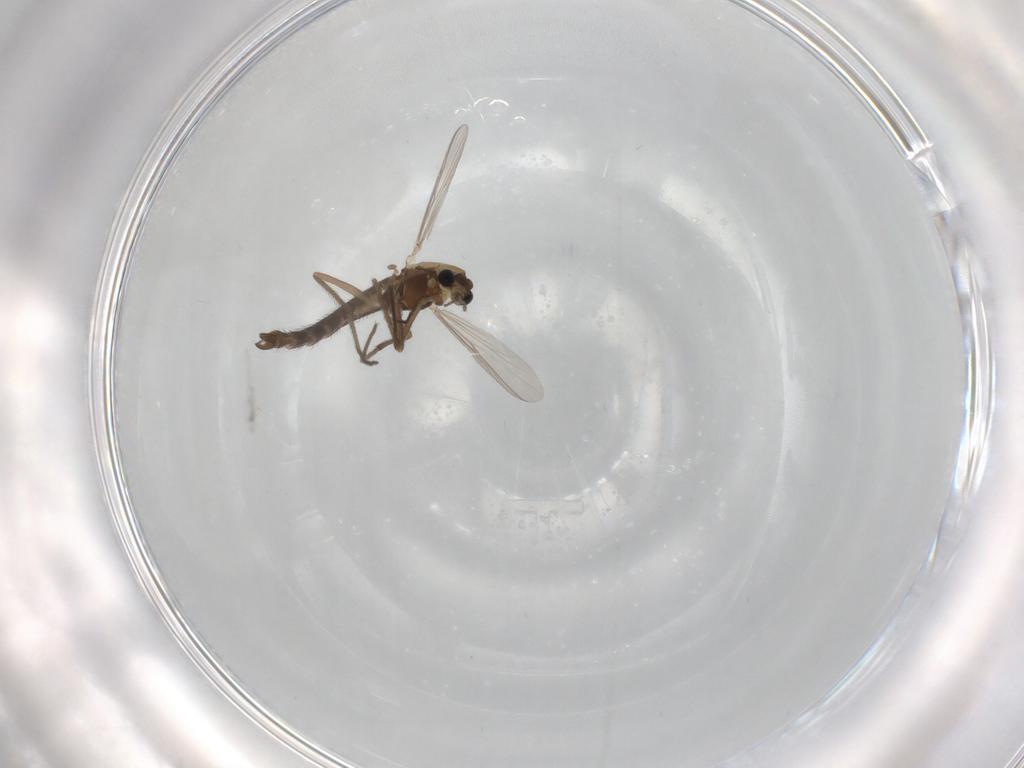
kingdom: Animalia
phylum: Arthropoda
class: Insecta
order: Diptera
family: Chironomidae
